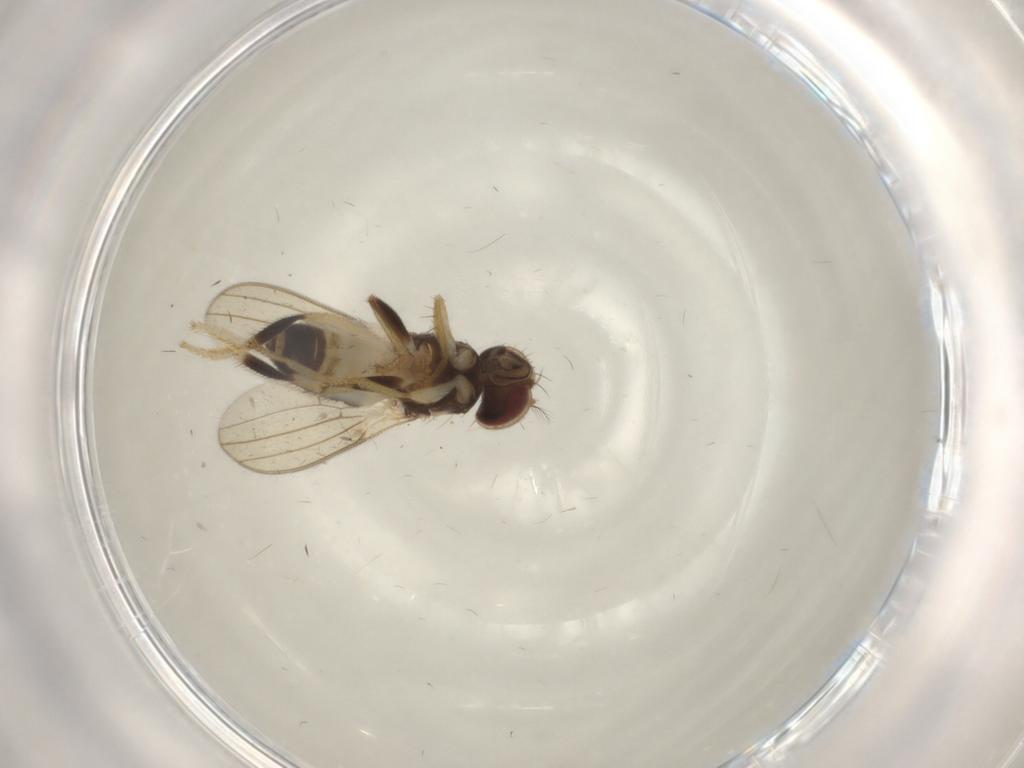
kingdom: Animalia
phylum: Arthropoda
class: Insecta
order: Diptera
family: Periscelididae
